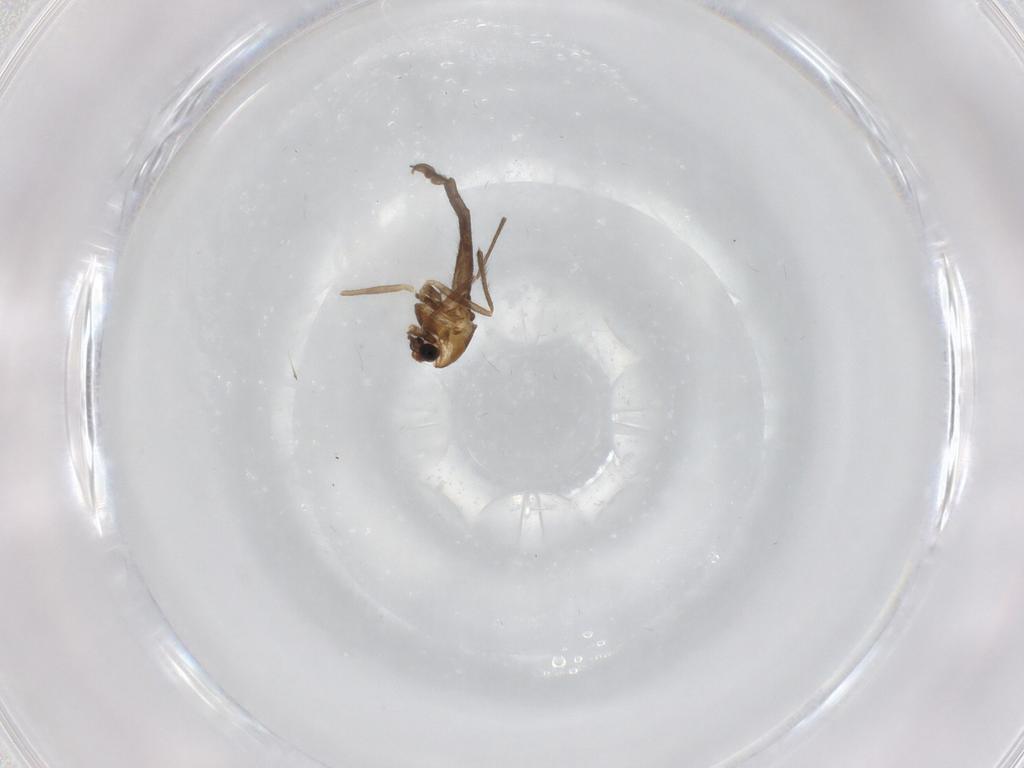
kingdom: Animalia
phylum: Arthropoda
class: Insecta
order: Diptera
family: Chironomidae
